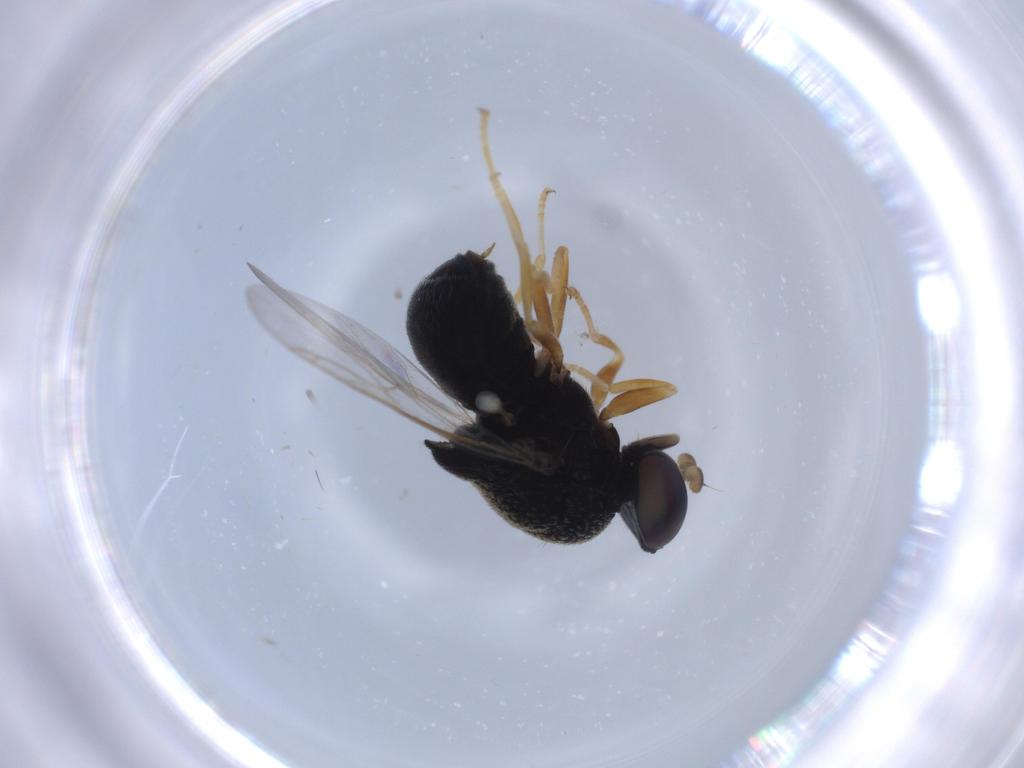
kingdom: Animalia
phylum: Arthropoda
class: Insecta
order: Diptera
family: Stratiomyidae
